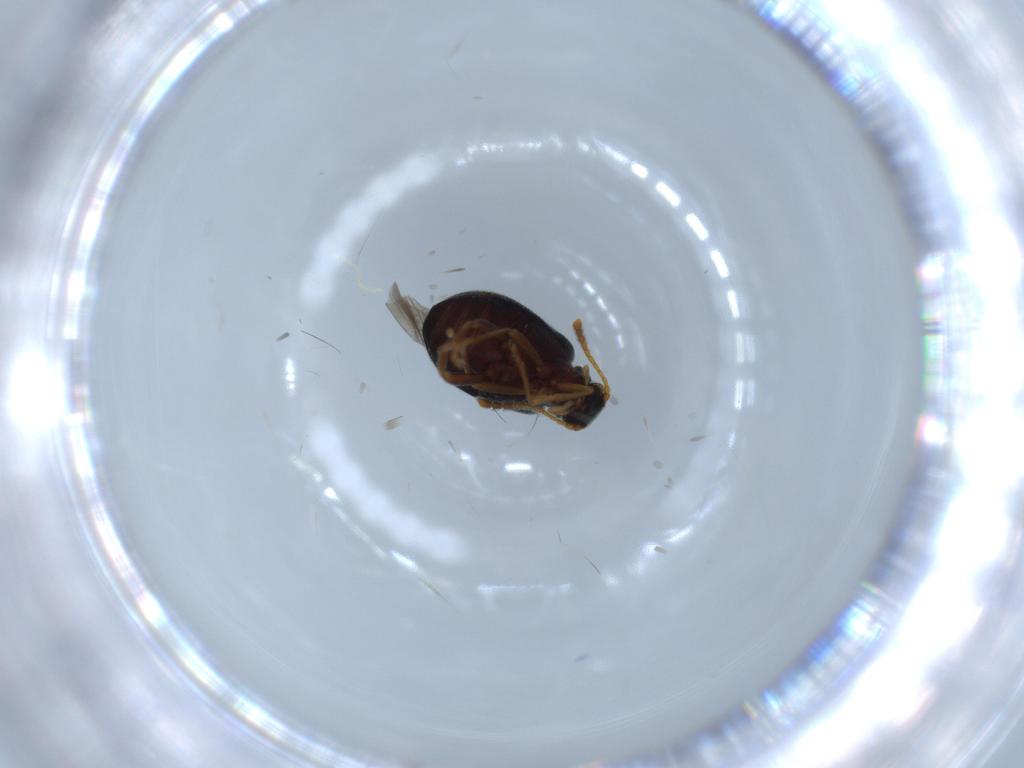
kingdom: Animalia
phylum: Arthropoda
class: Insecta
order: Coleoptera
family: Aderidae
